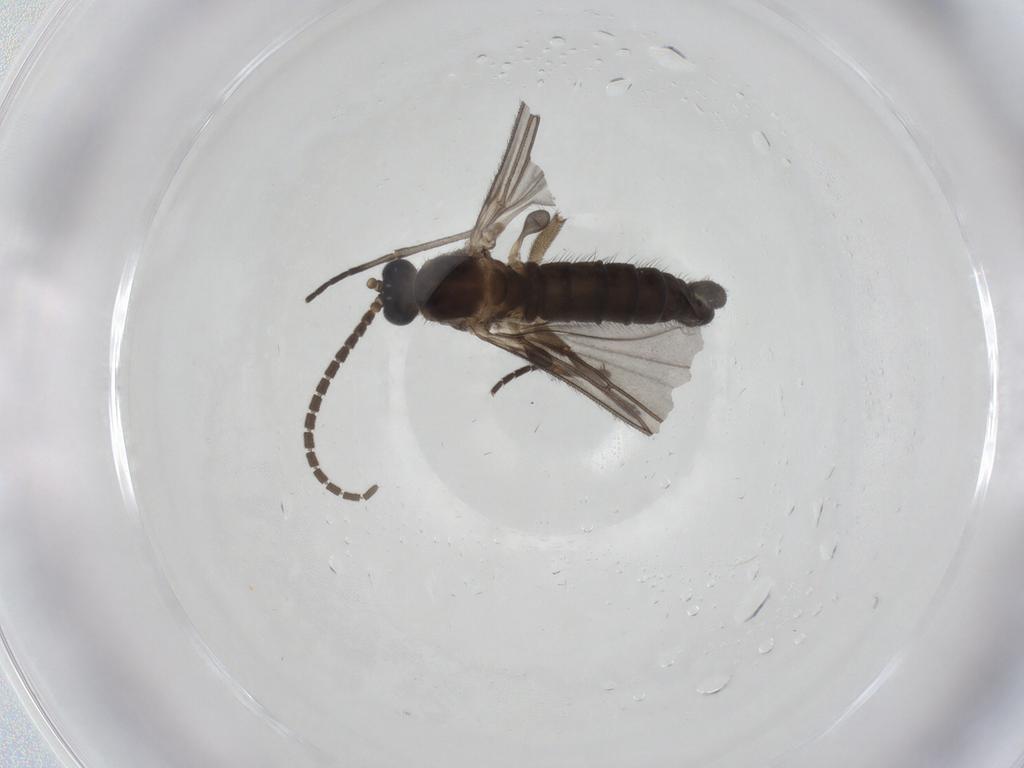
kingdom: Animalia
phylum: Arthropoda
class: Insecta
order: Diptera
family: Sciaridae
